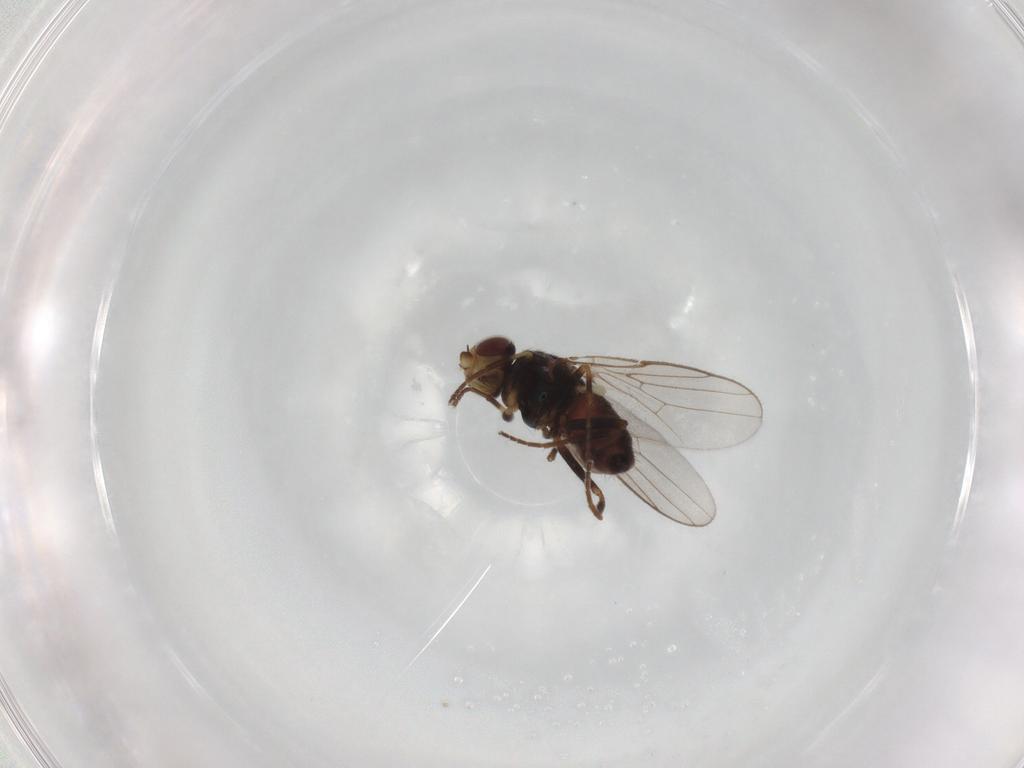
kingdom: Animalia
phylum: Arthropoda
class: Insecta
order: Diptera
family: Chloropidae
